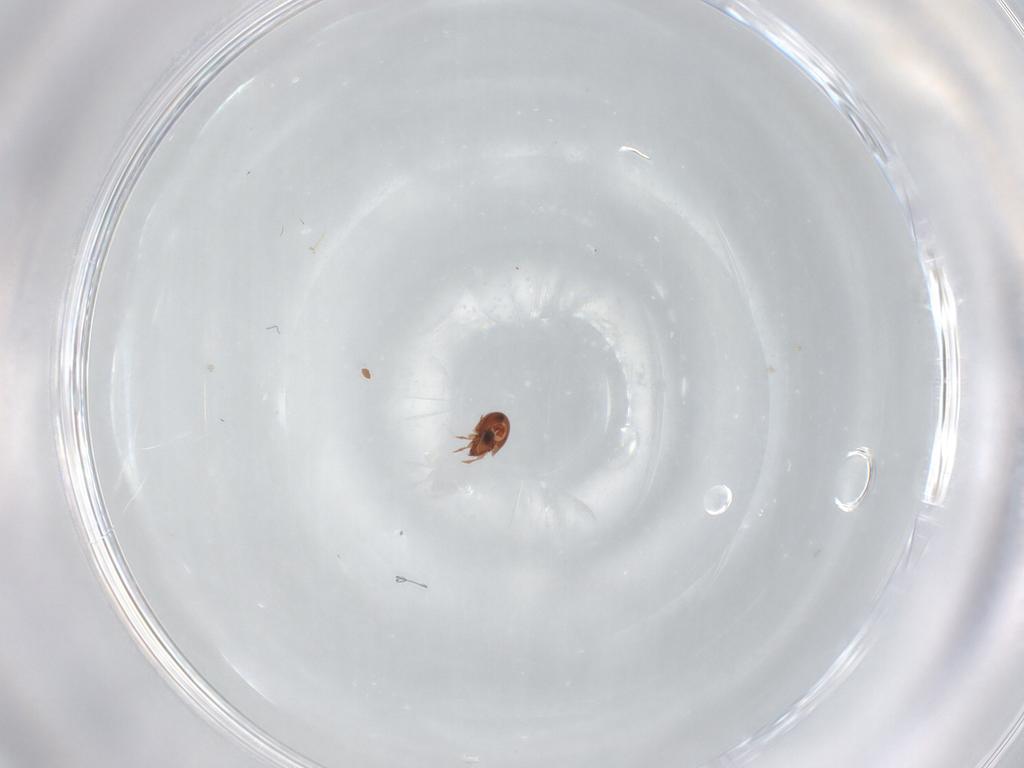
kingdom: Animalia
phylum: Arthropoda
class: Arachnida
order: Sarcoptiformes
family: Scheloribatidae
